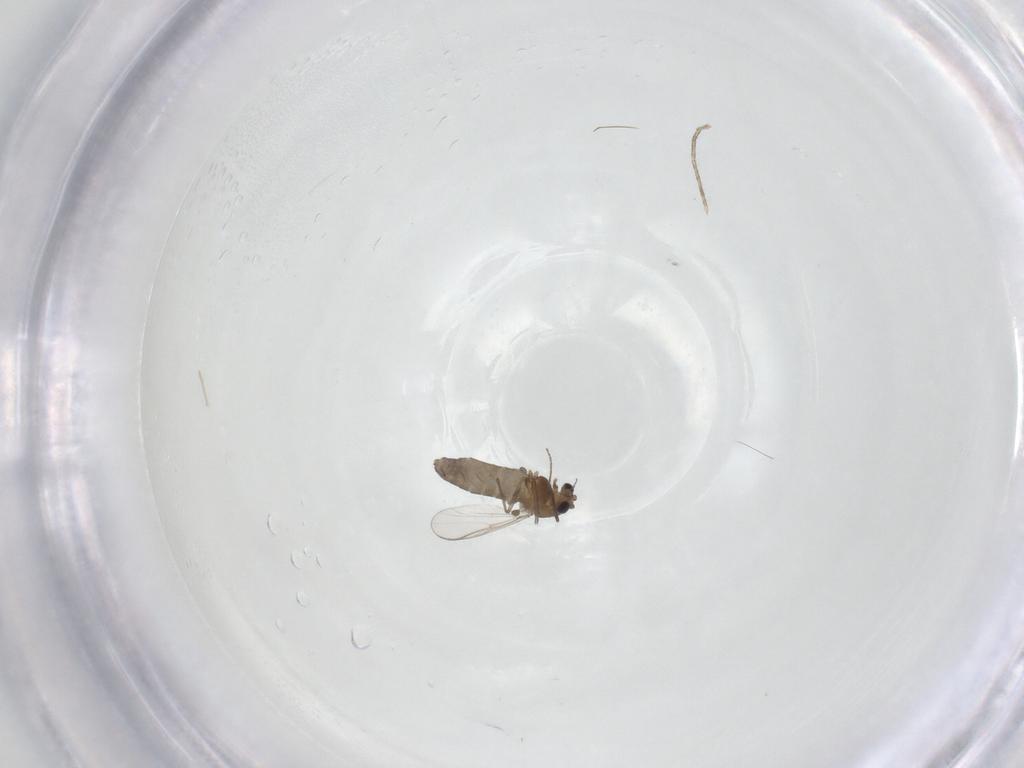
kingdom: Animalia
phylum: Arthropoda
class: Insecta
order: Diptera
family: Chironomidae
